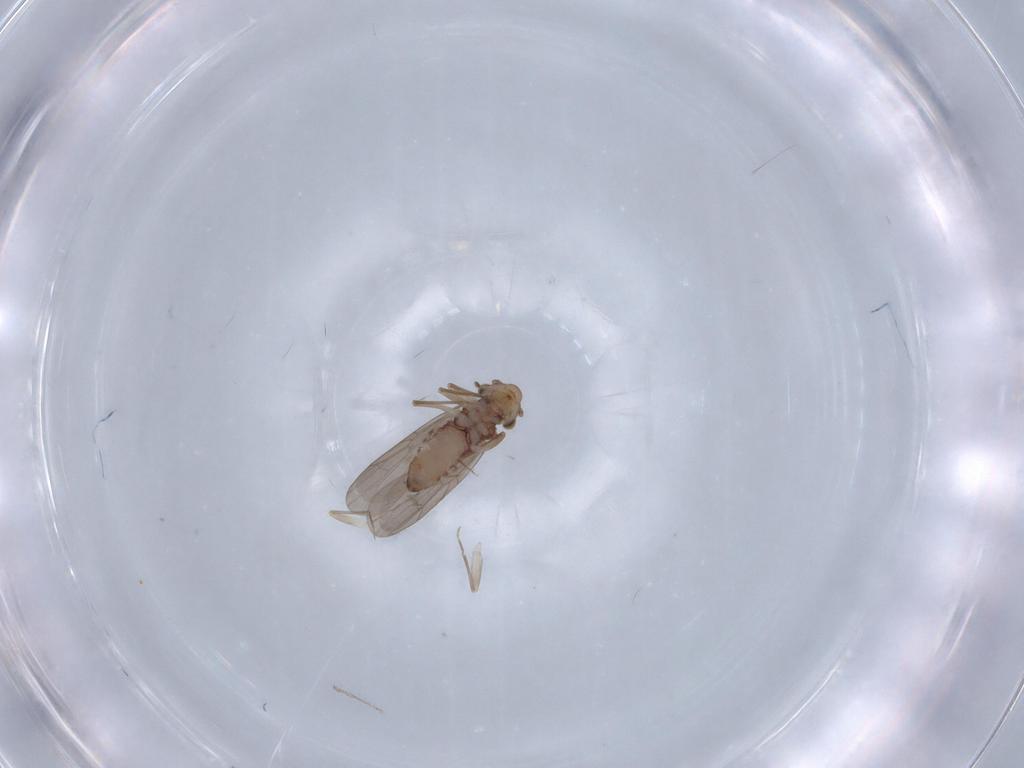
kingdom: Animalia
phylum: Arthropoda
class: Insecta
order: Psocodea
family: Lepidopsocidae
